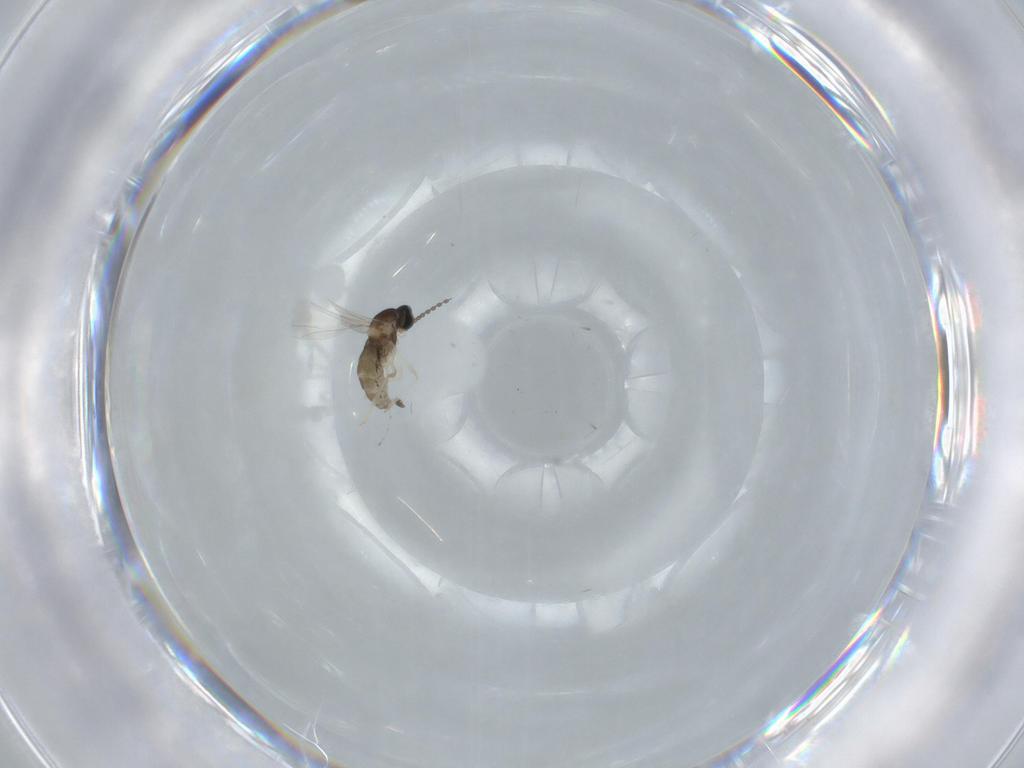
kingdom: Animalia
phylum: Arthropoda
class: Insecta
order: Diptera
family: Cecidomyiidae
